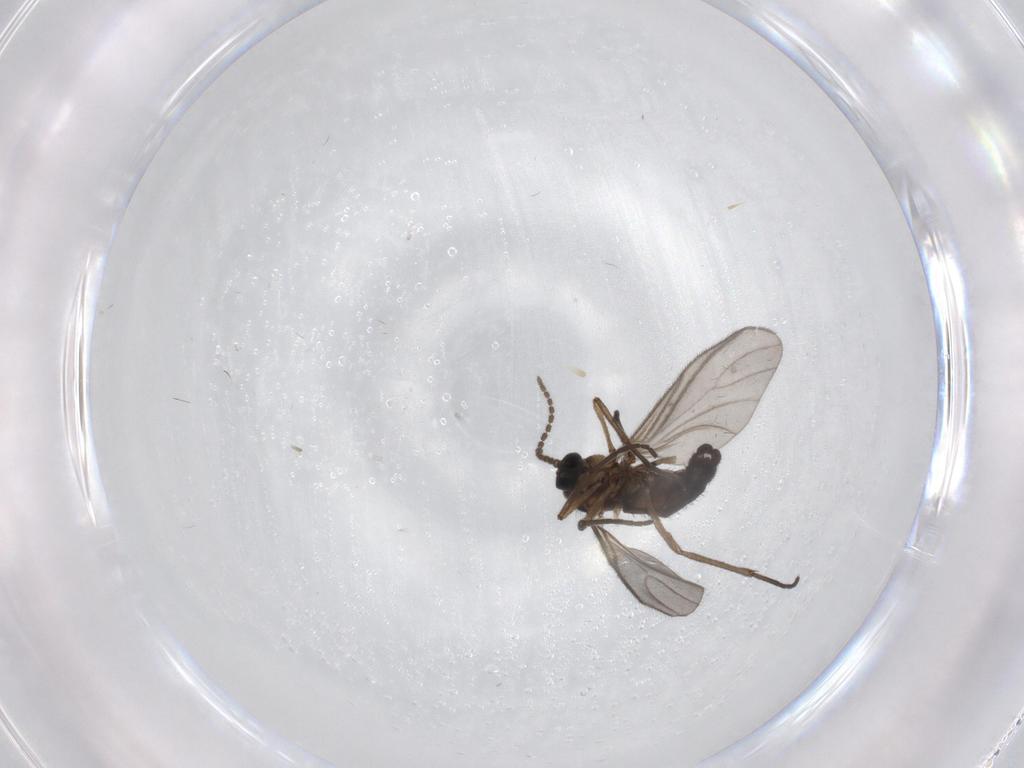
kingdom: Animalia
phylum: Arthropoda
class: Insecta
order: Diptera
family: Sciaridae
